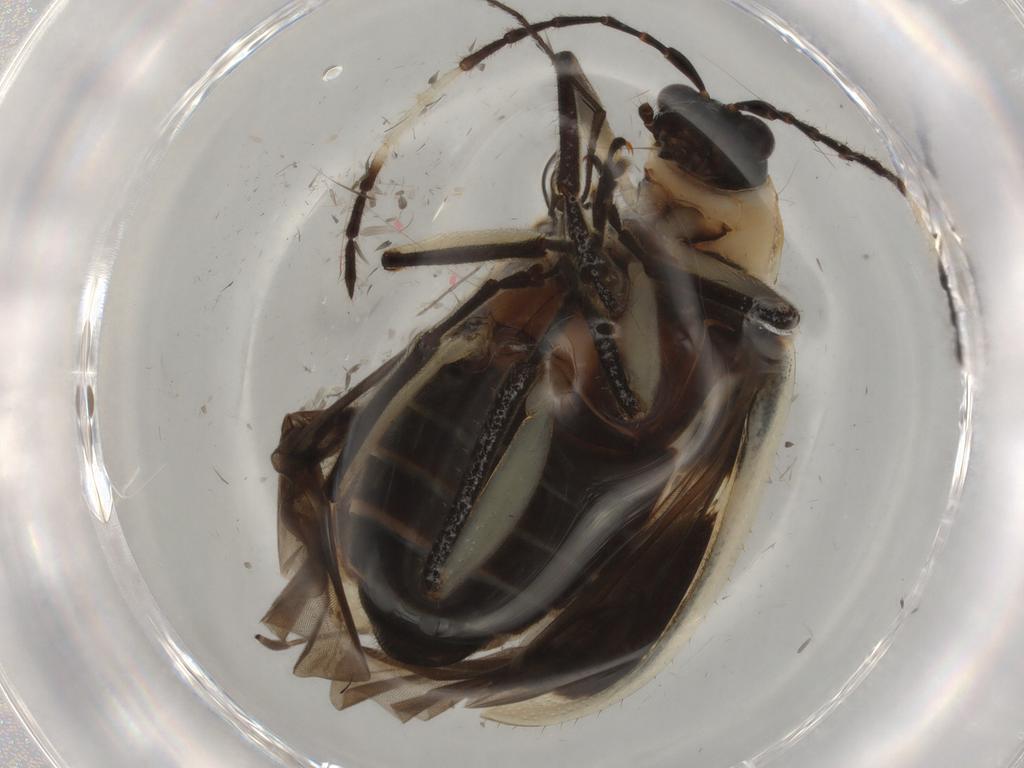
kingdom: Animalia
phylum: Arthropoda
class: Insecta
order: Coleoptera
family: Chrysomelidae
